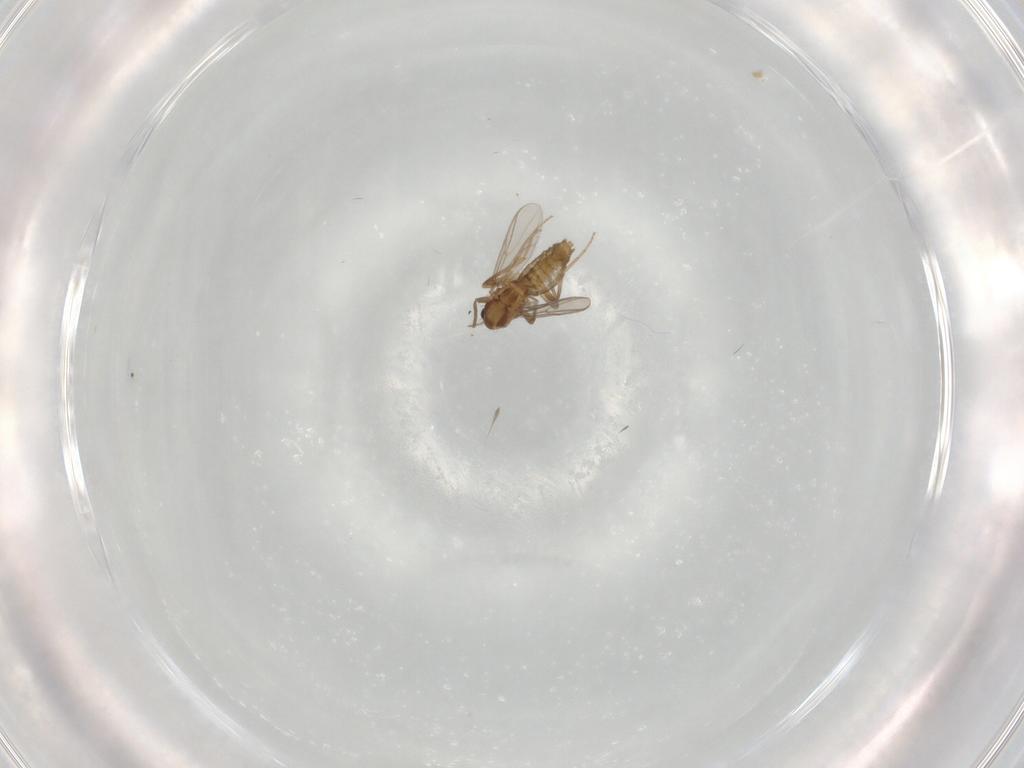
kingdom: Animalia
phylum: Arthropoda
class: Insecta
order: Diptera
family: Chironomidae
